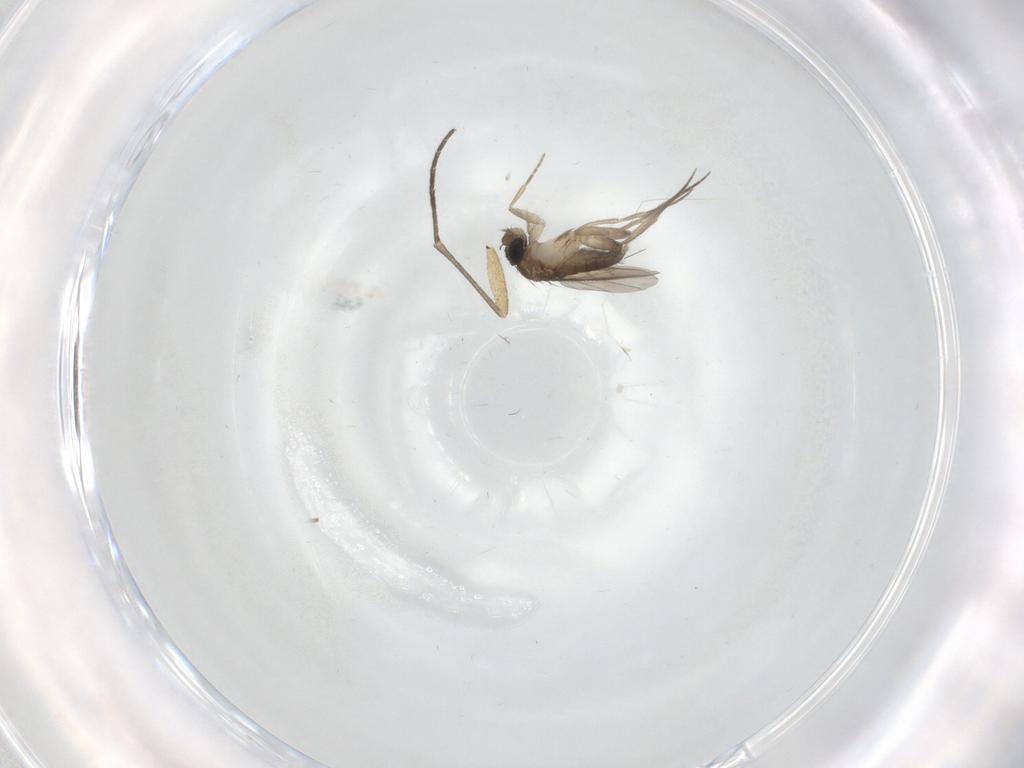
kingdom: Animalia
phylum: Arthropoda
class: Insecta
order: Diptera
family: Phoridae
